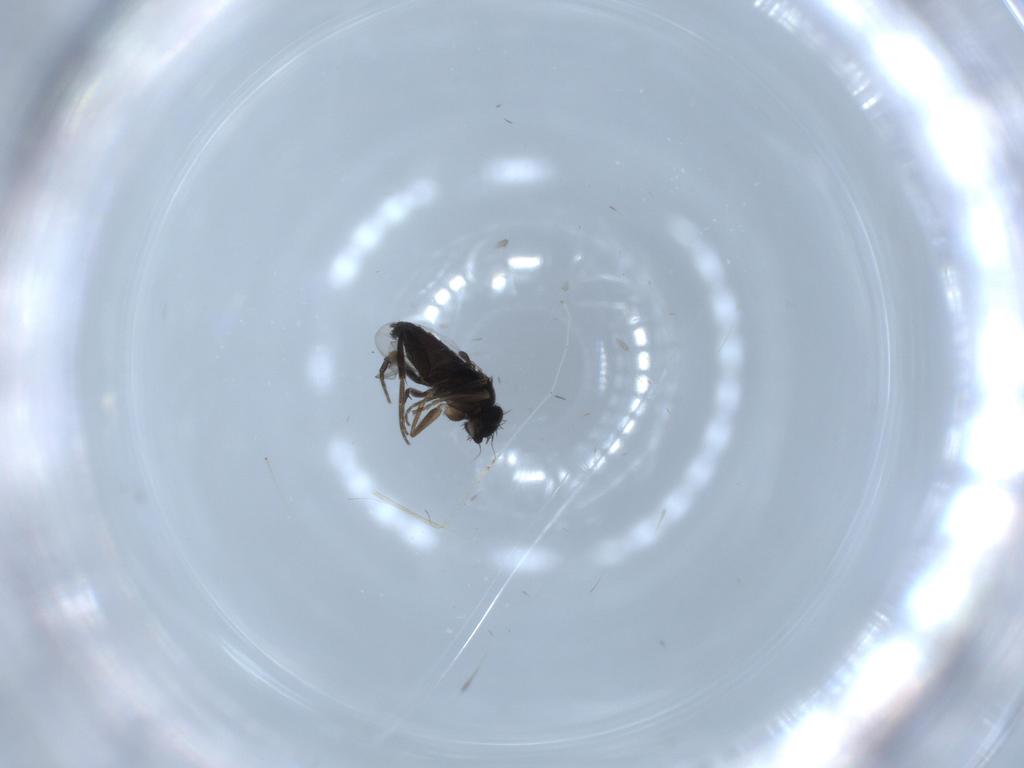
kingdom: Animalia
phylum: Arthropoda
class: Insecta
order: Diptera
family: Phoridae
